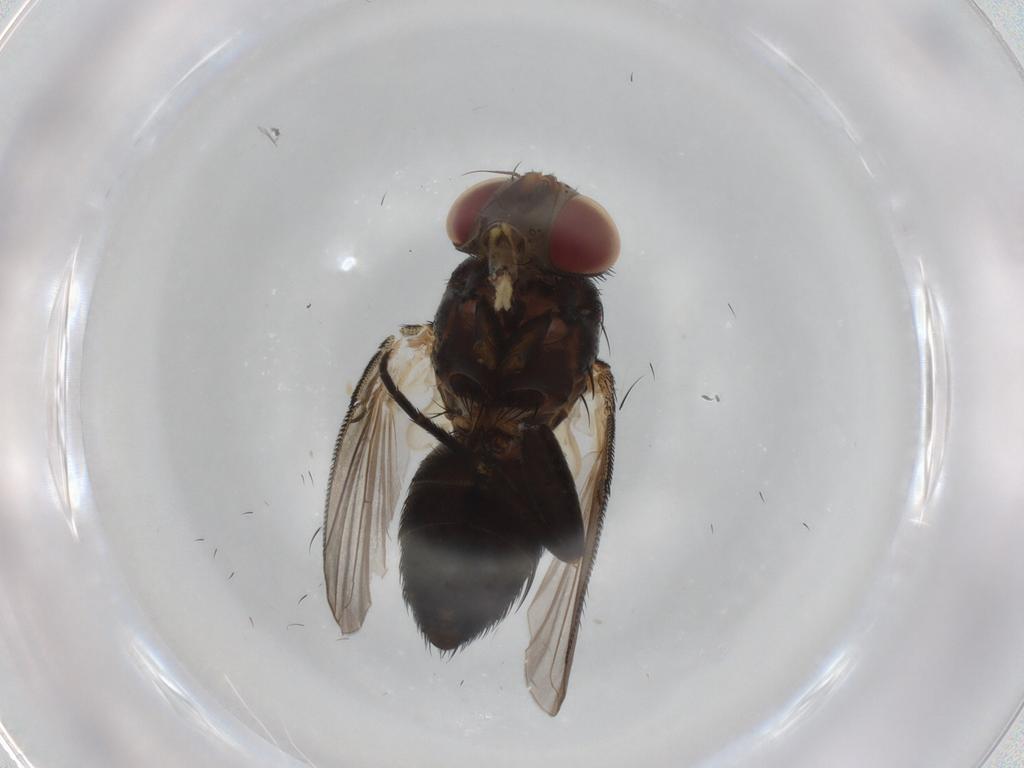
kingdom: Animalia
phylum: Arthropoda
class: Insecta
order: Diptera
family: Tachinidae
